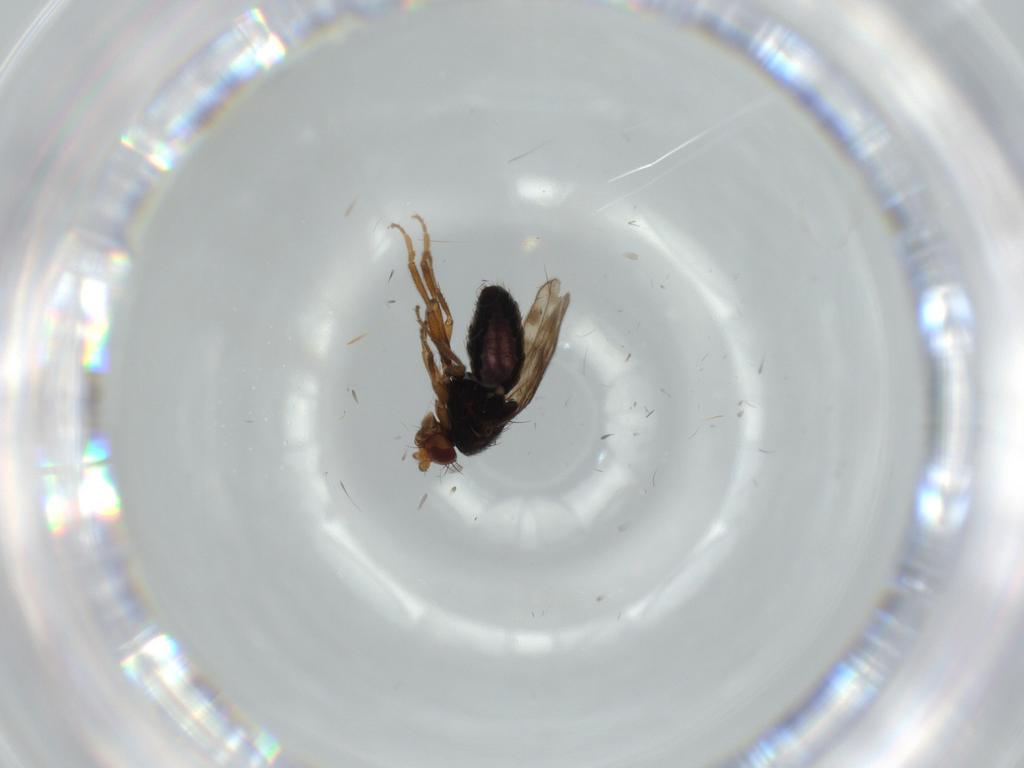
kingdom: Animalia
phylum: Arthropoda
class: Insecta
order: Diptera
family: Sphaeroceridae
